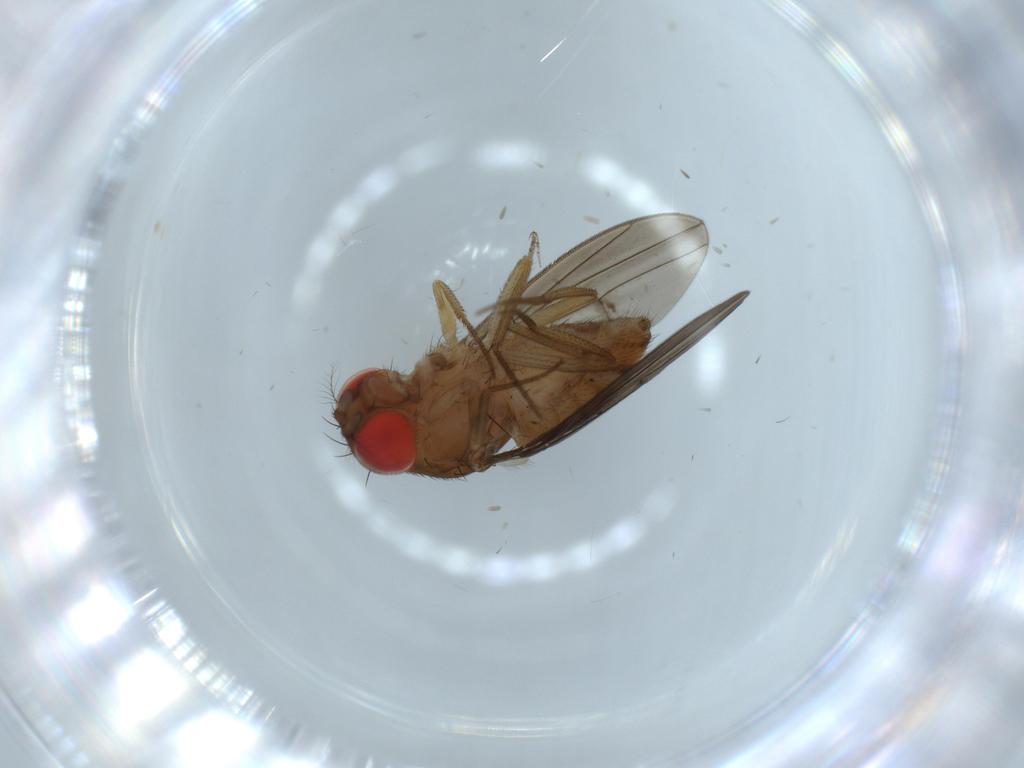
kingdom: Animalia
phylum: Arthropoda
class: Insecta
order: Diptera
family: Drosophilidae
